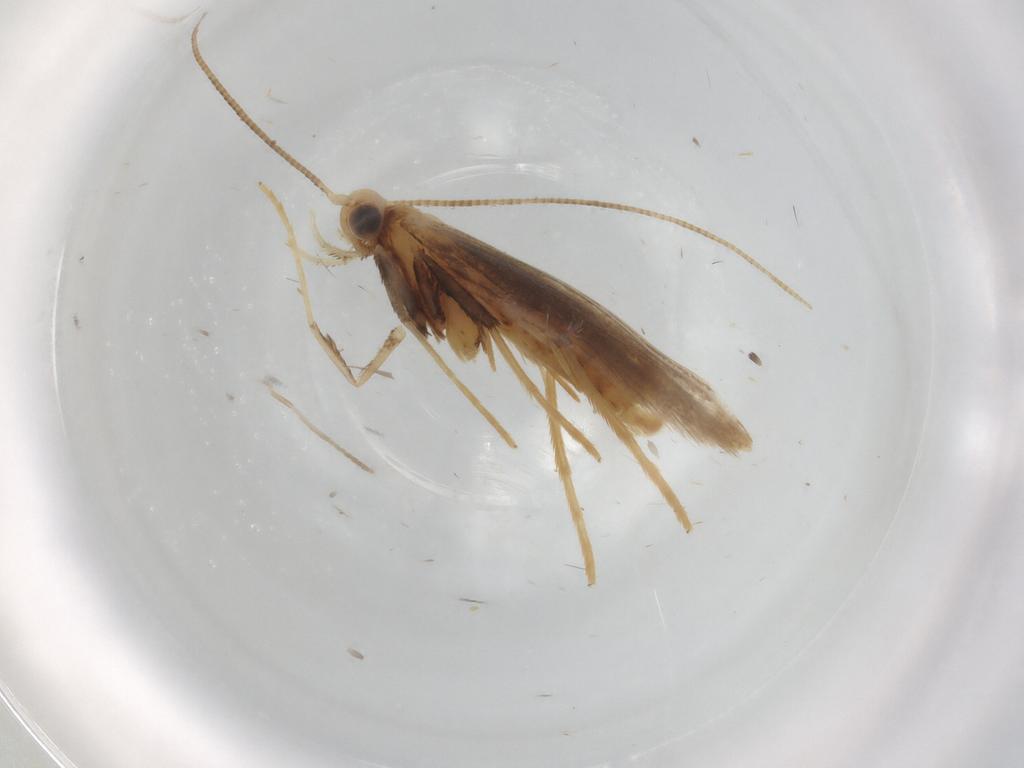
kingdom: Animalia
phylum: Arthropoda
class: Insecta
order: Lepidoptera
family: Gracillariidae
